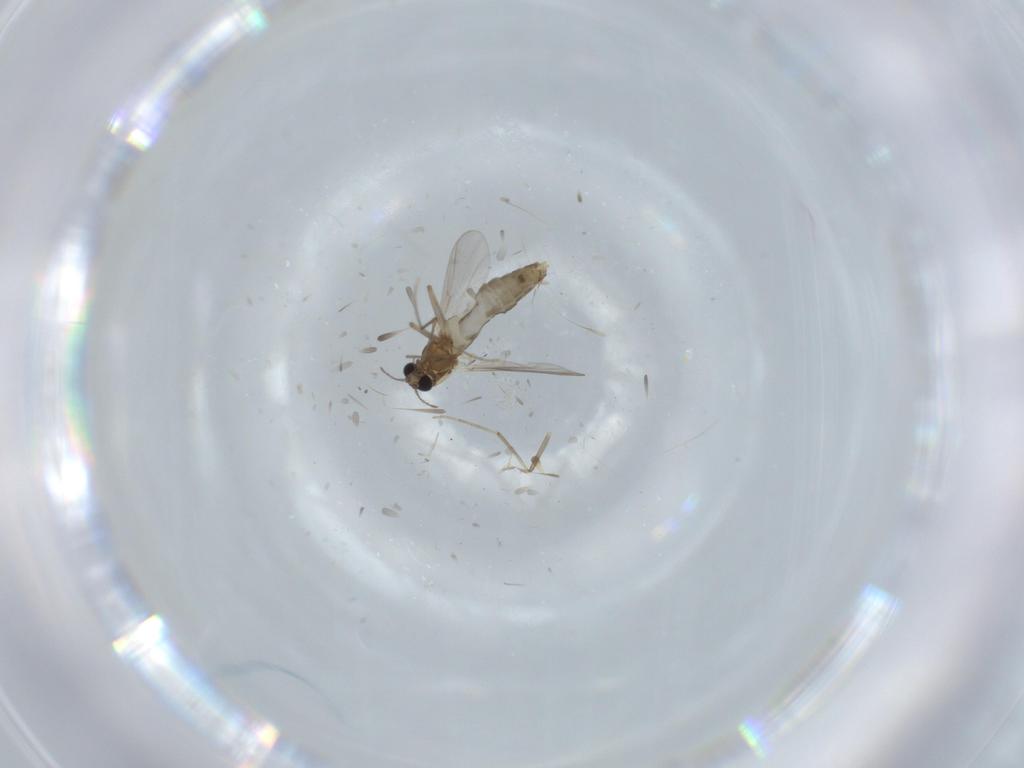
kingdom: Animalia
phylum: Arthropoda
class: Insecta
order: Diptera
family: Chironomidae
